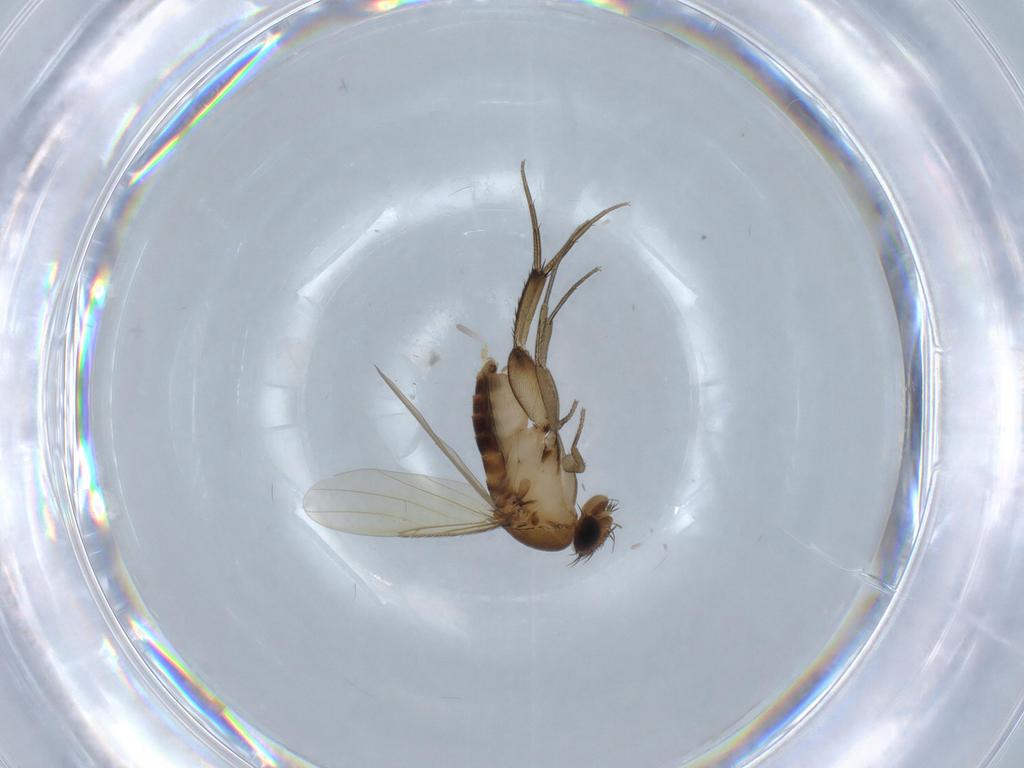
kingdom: Animalia
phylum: Arthropoda
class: Insecta
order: Diptera
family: Phoridae
